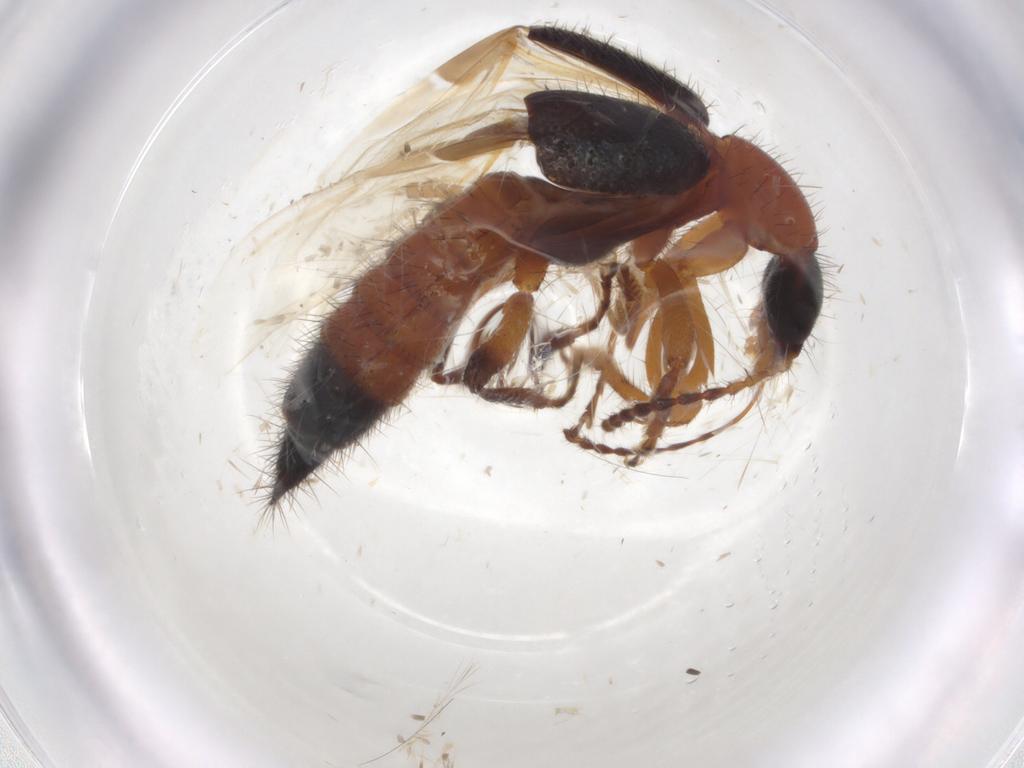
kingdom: Animalia
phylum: Arthropoda
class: Insecta
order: Coleoptera
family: Staphylinidae
